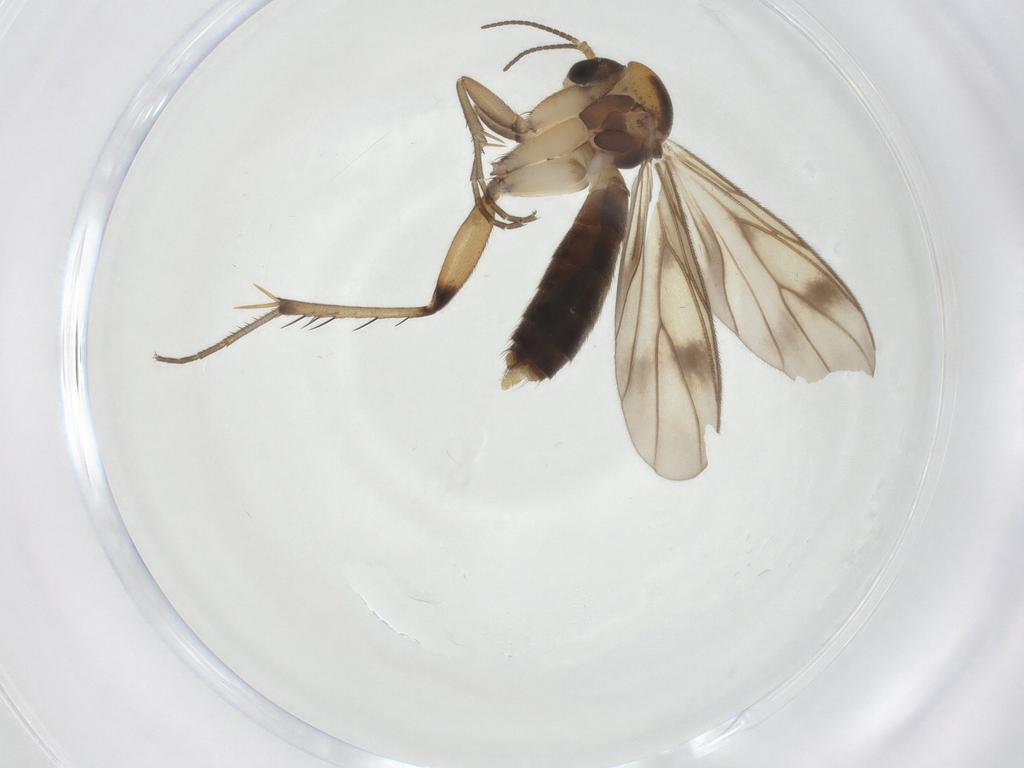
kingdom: Animalia
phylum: Arthropoda
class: Insecta
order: Diptera
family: Mycetophilidae
